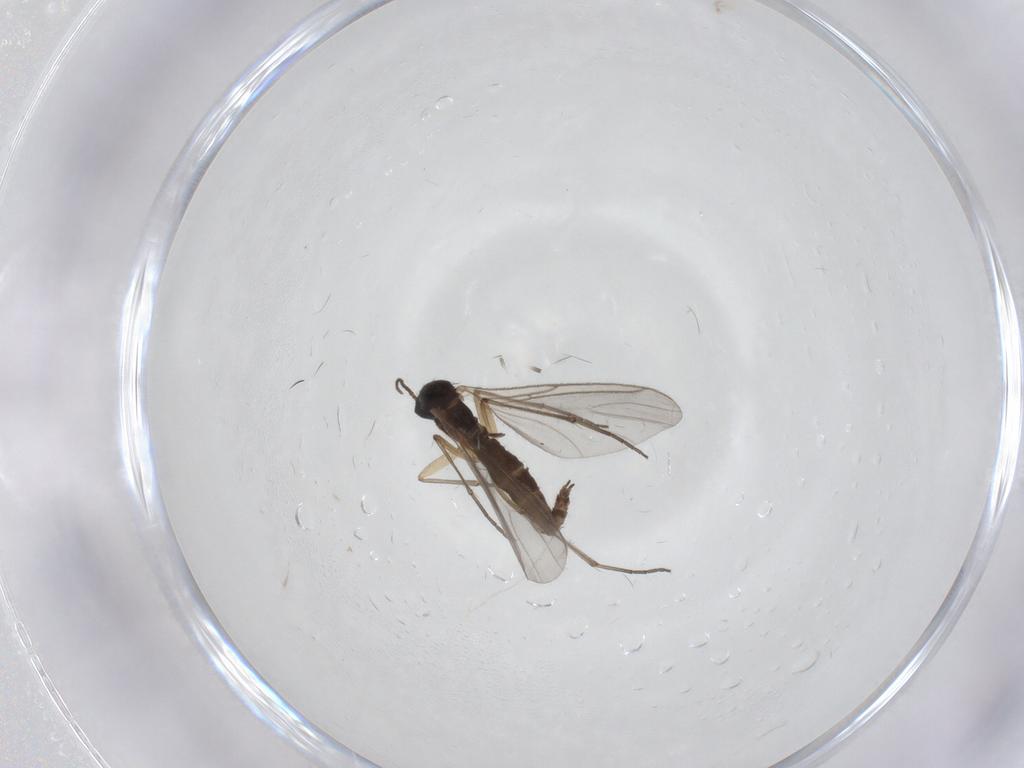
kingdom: Animalia
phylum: Arthropoda
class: Insecta
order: Diptera
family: Sciaridae
